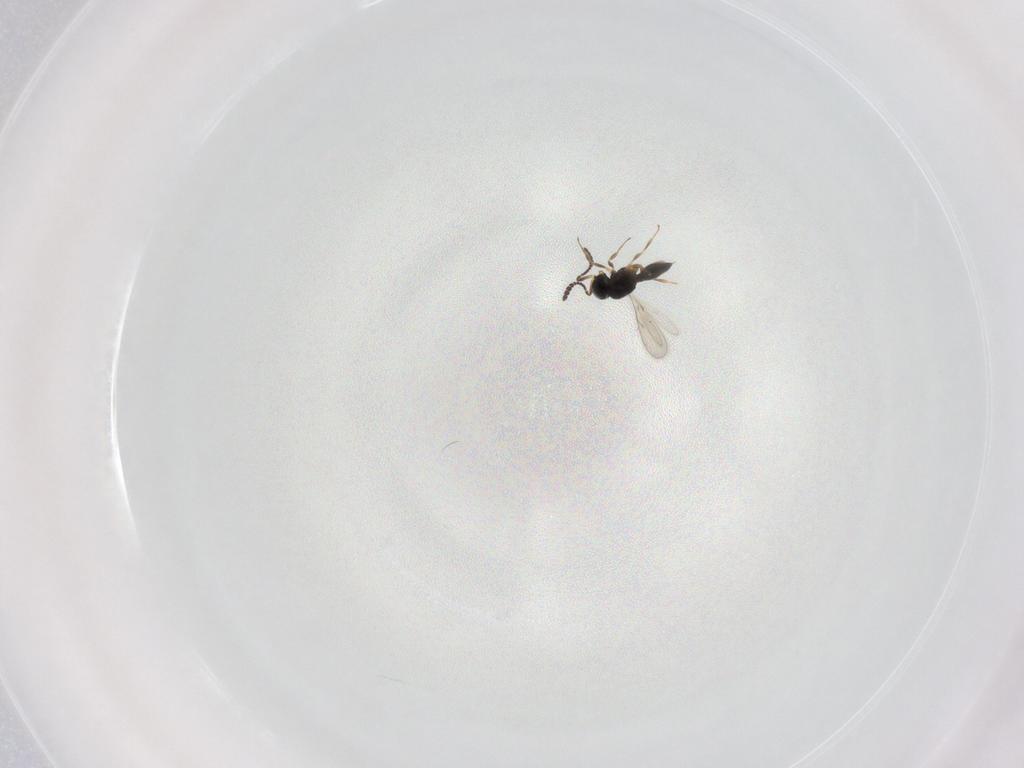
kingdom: Animalia
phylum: Arthropoda
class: Insecta
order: Hymenoptera
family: Scelionidae
